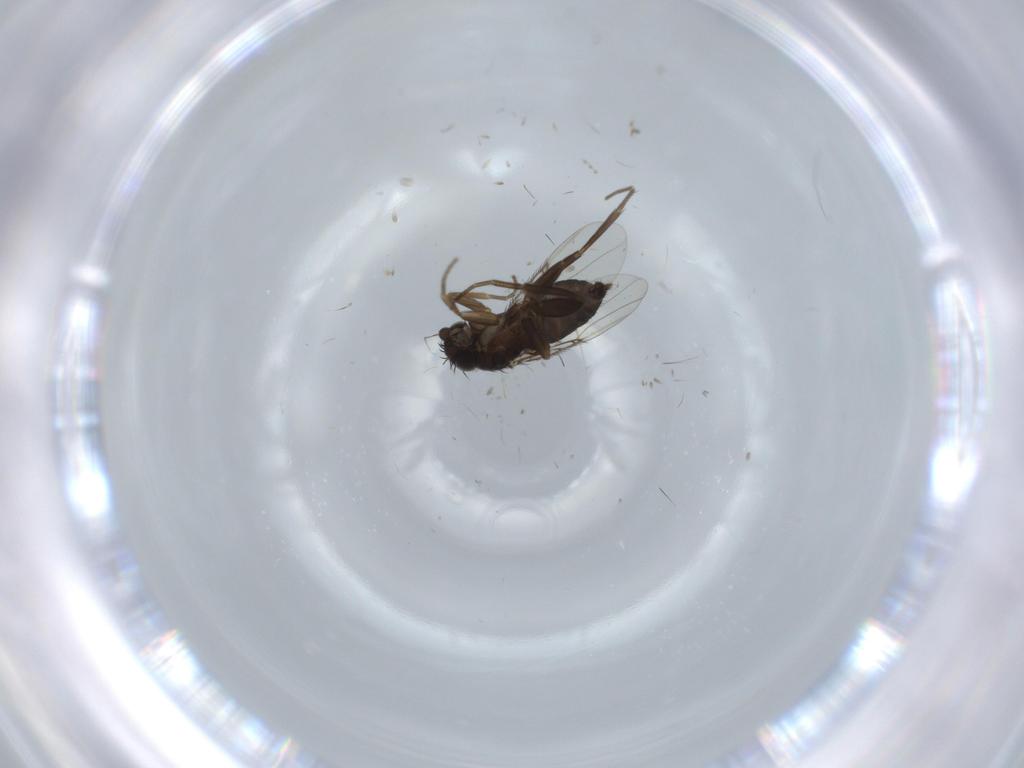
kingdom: Animalia
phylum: Arthropoda
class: Insecta
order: Diptera
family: Phoridae
